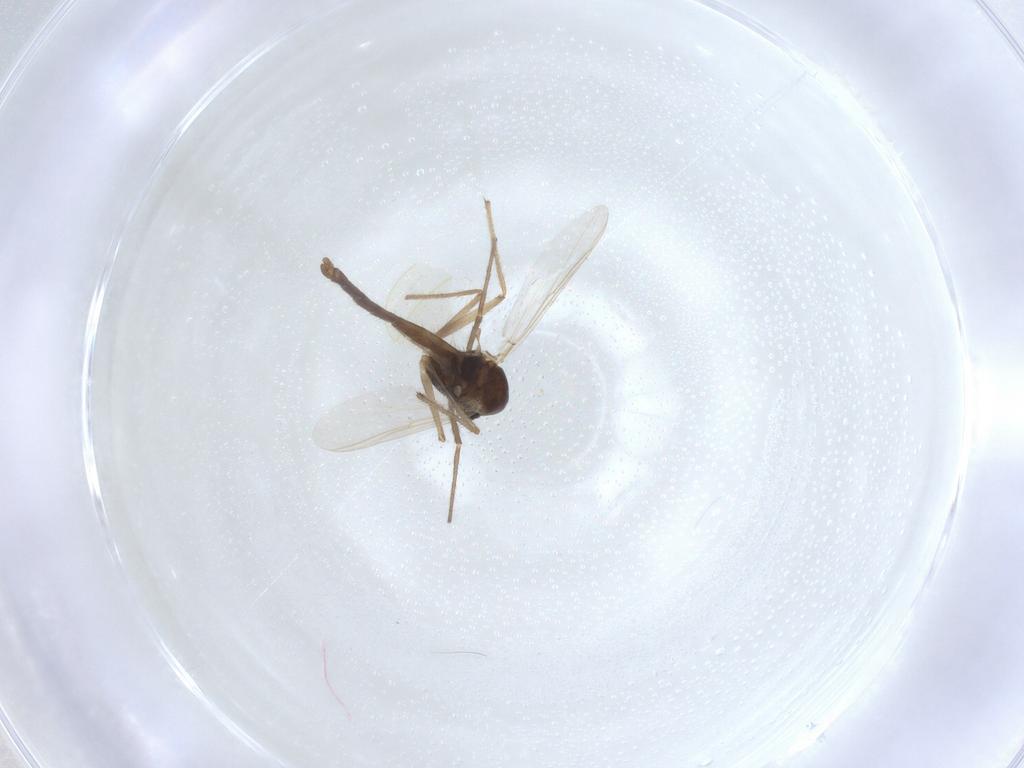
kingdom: Animalia
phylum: Arthropoda
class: Insecta
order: Diptera
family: Chironomidae
